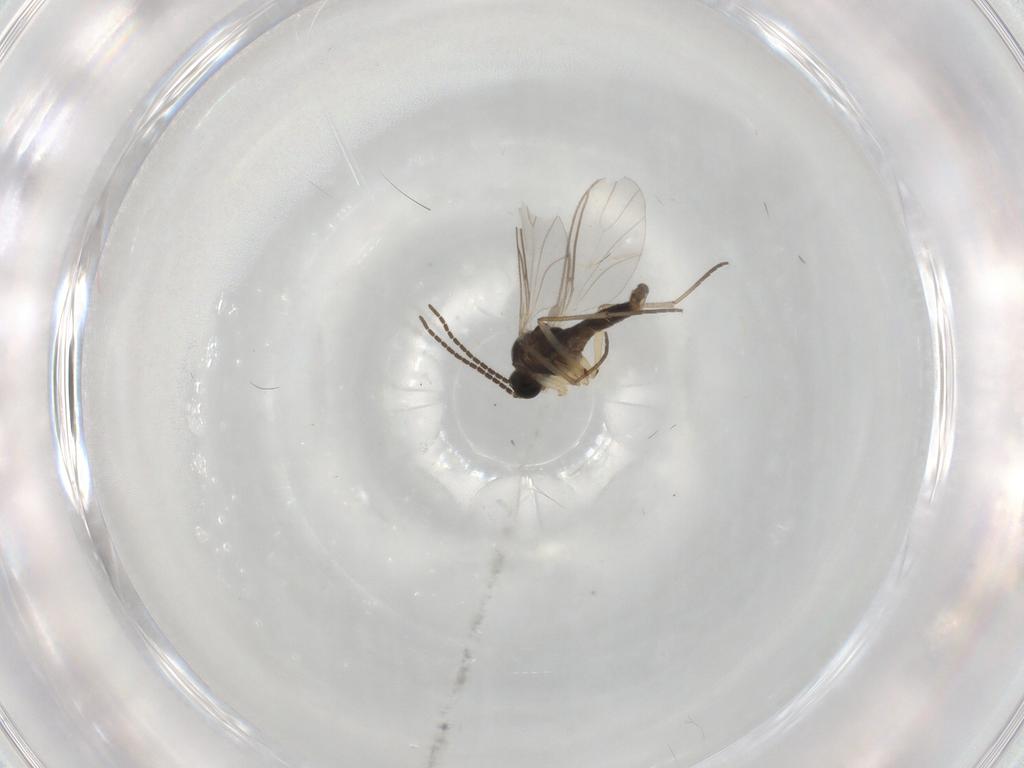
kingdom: Animalia
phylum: Arthropoda
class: Insecta
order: Diptera
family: Sciaridae
